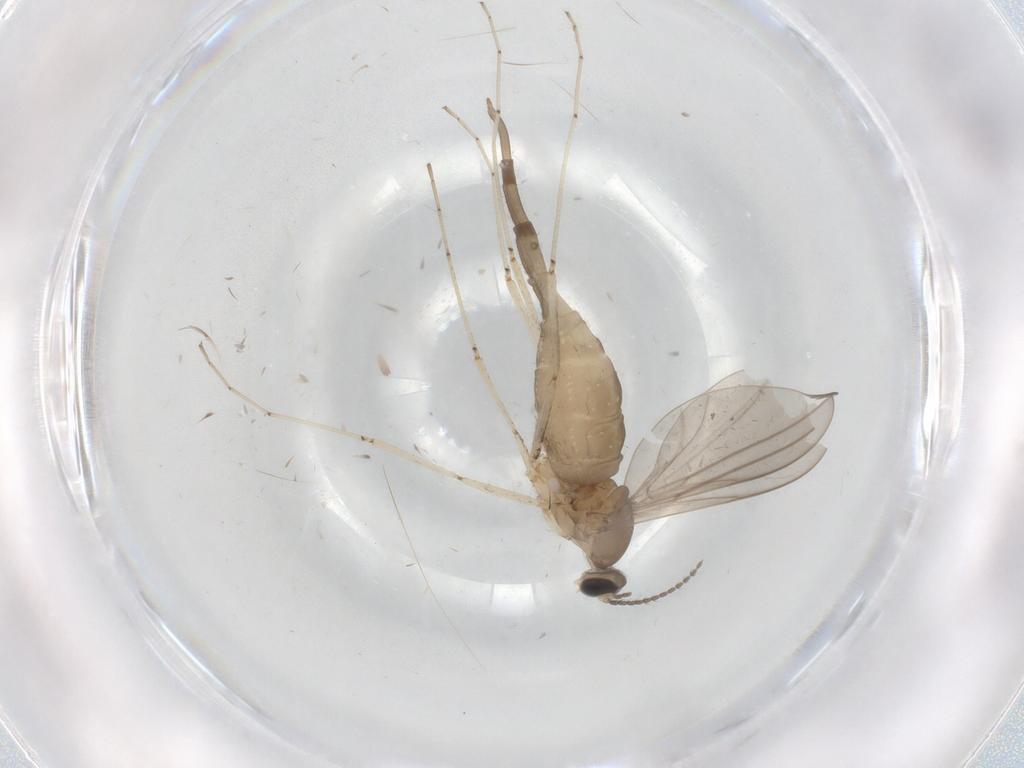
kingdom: Animalia
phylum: Arthropoda
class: Insecta
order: Diptera
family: Cecidomyiidae
